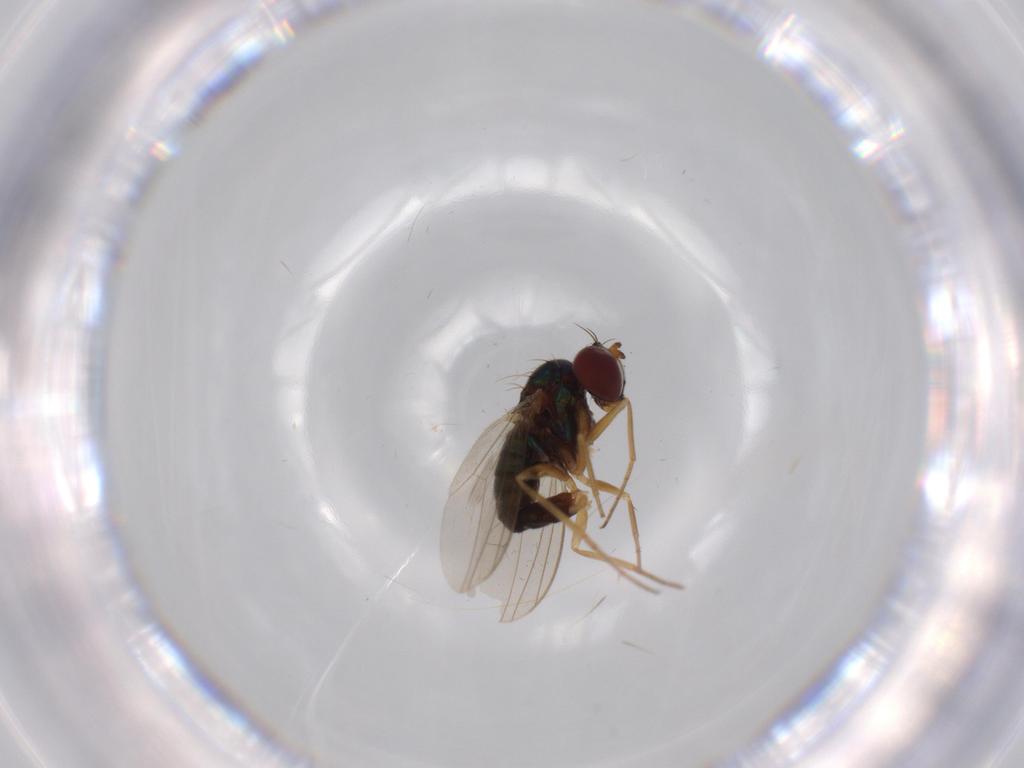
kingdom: Animalia
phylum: Arthropoda
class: Insecta
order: Diptera
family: Dolichopodidae
